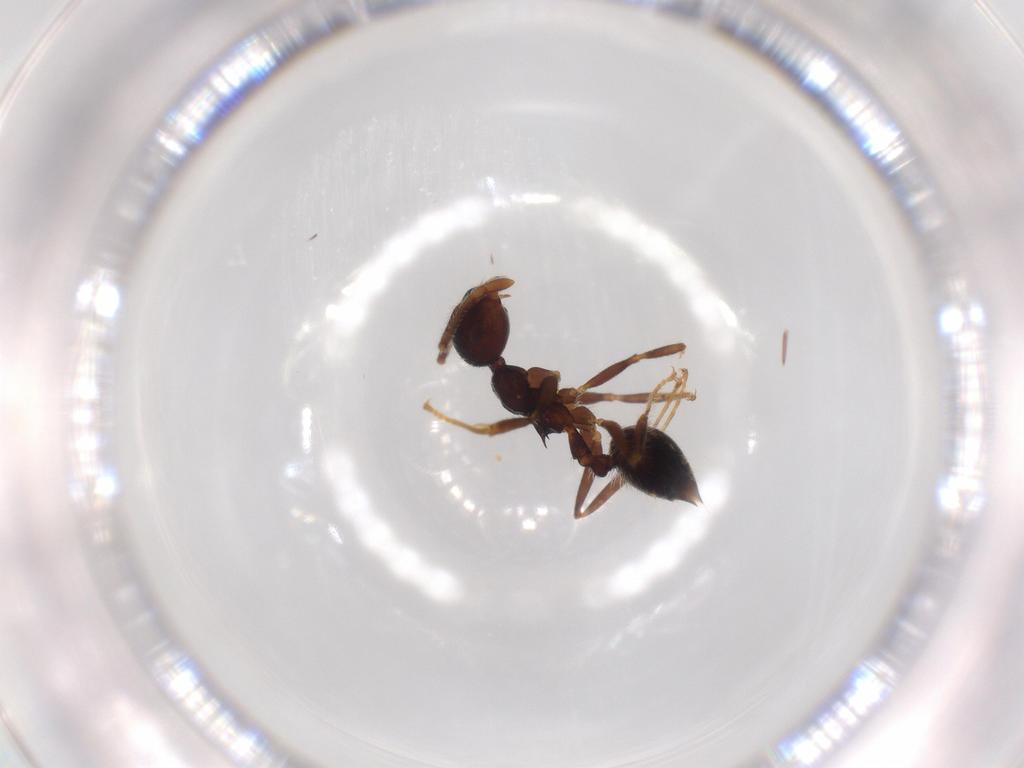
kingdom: Animalia
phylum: Arthropoda
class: Insecta
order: Hymenoptera
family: Formicidae
